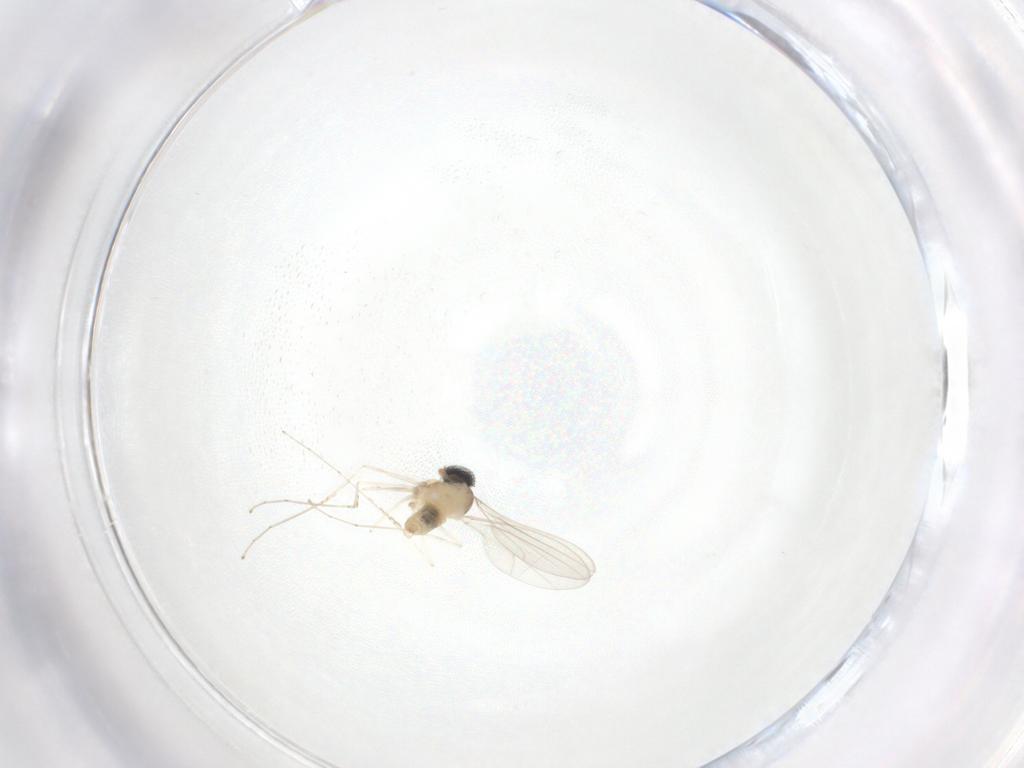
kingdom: Animalia
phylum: Arthropoda
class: Insecta
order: Diptera
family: Cecidomyiidae
